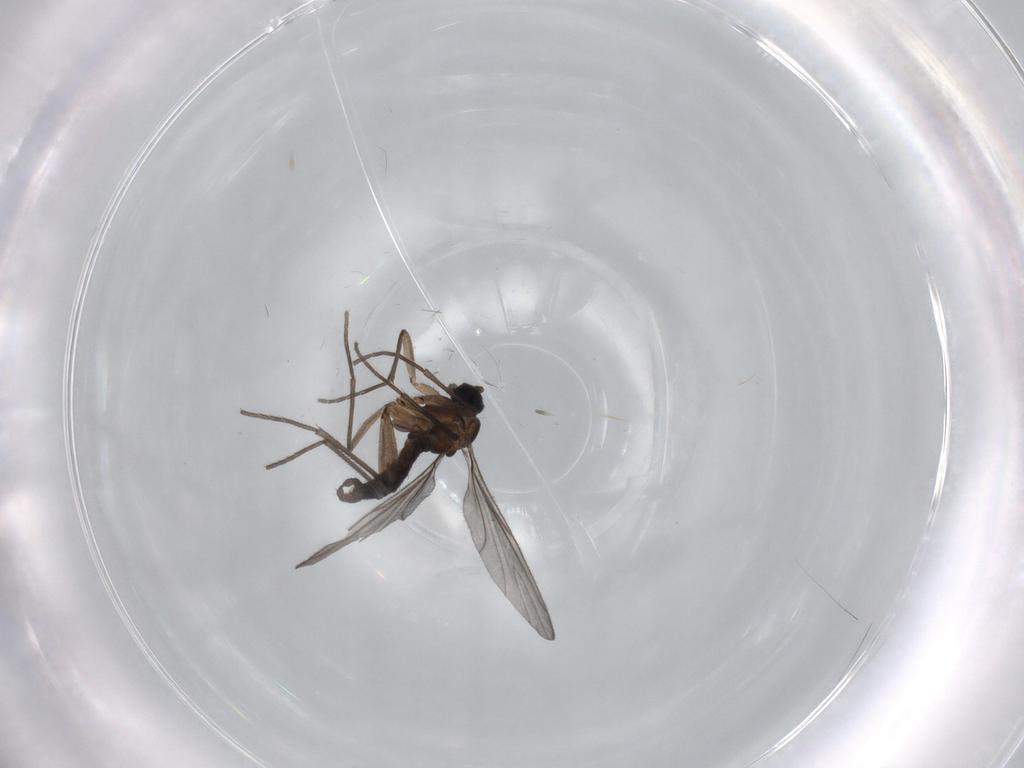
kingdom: Animalia
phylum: Arthropoda
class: Insecta
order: Diptera
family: Sciaridae
